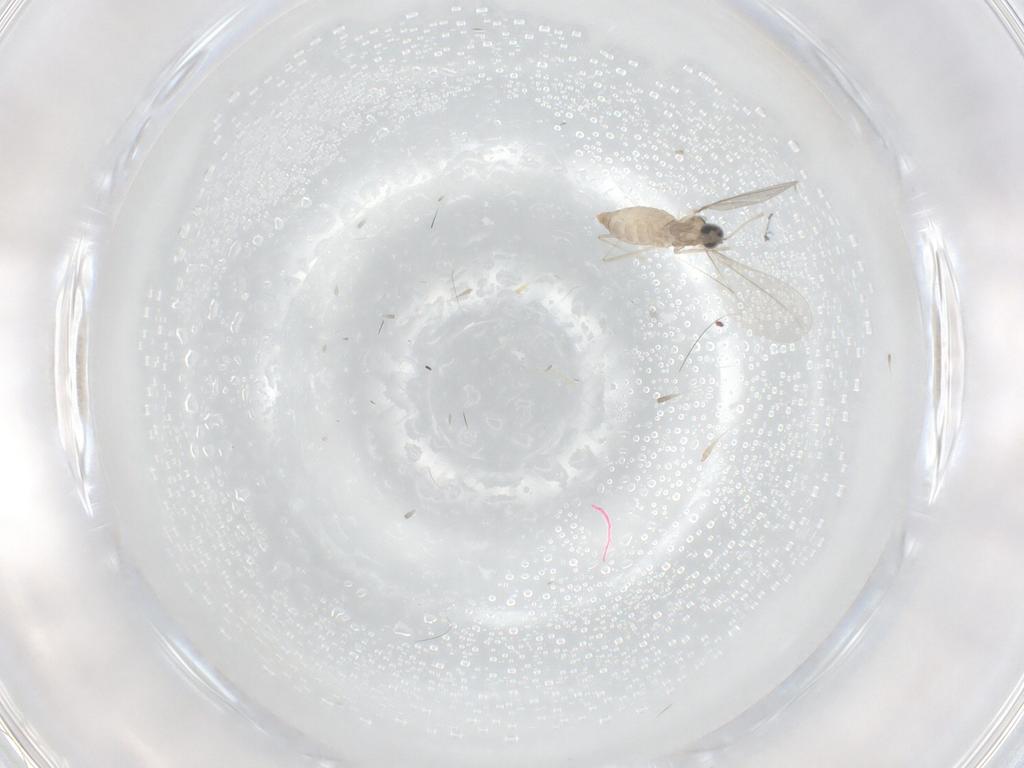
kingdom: Animalia
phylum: Arthropoda
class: Insecta
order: Diptera
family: Keroplatidae
